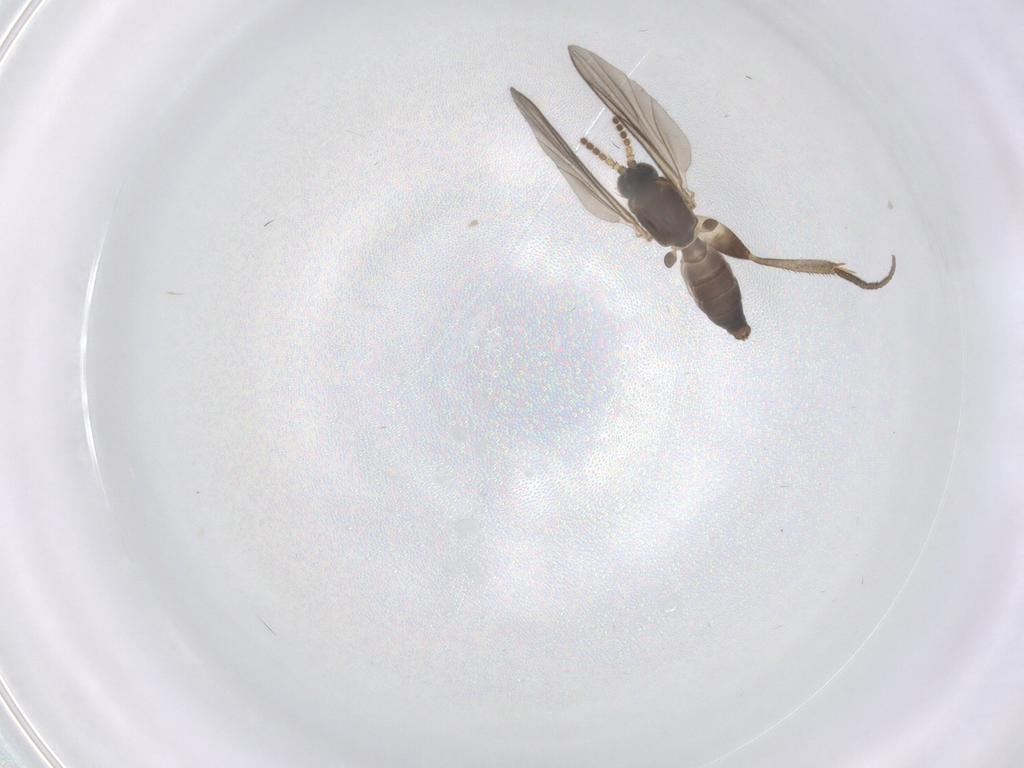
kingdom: Animalia
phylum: Arthropoda
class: Insecta
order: Diptera
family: Mycetophilidae
